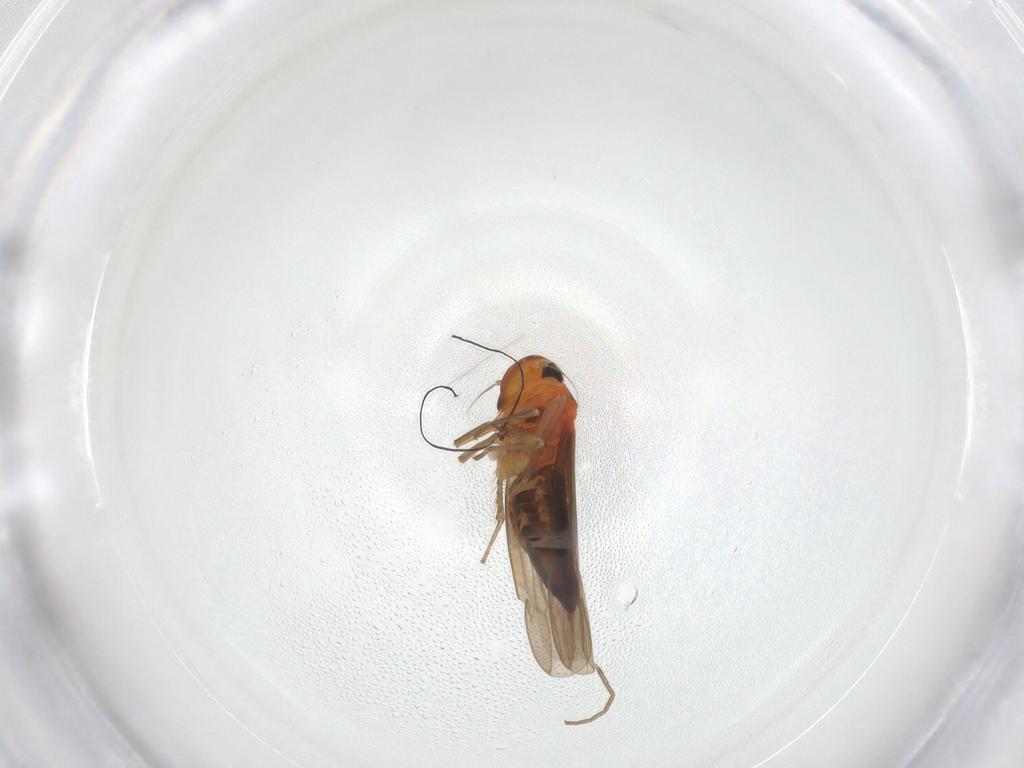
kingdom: Animalia
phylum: Arthropoda
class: Insecta
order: Hemiptera
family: Cicadellidae
